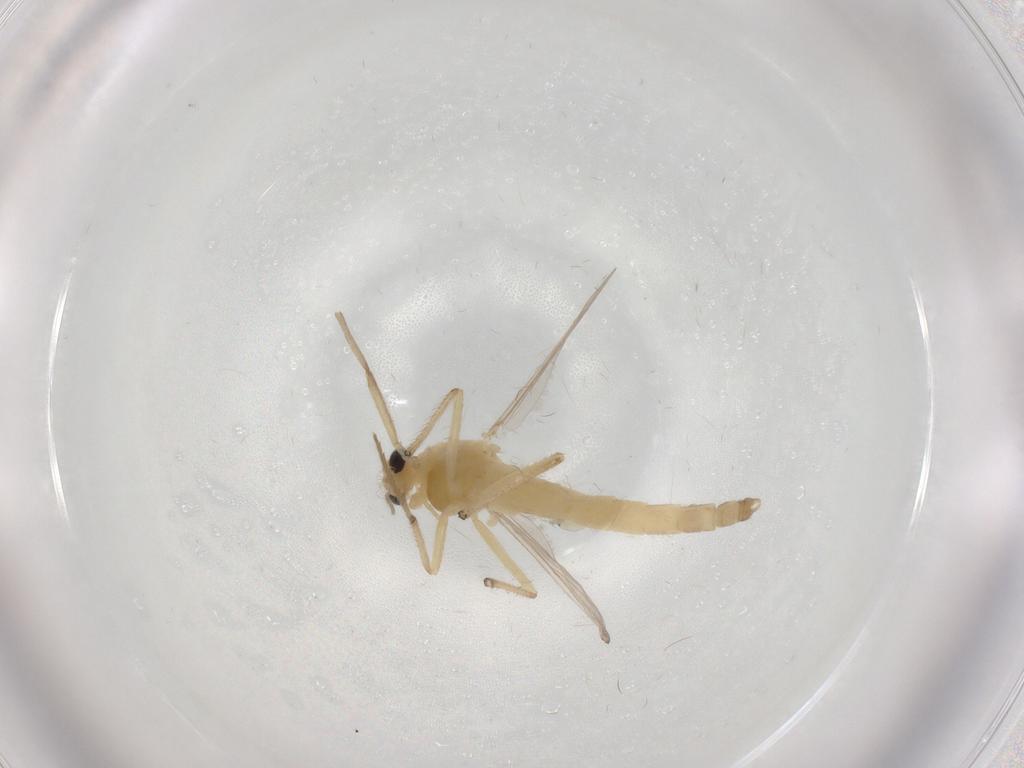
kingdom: Animalia
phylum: Arthropoda
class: Insecta
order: Diptera
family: Chironomidae
